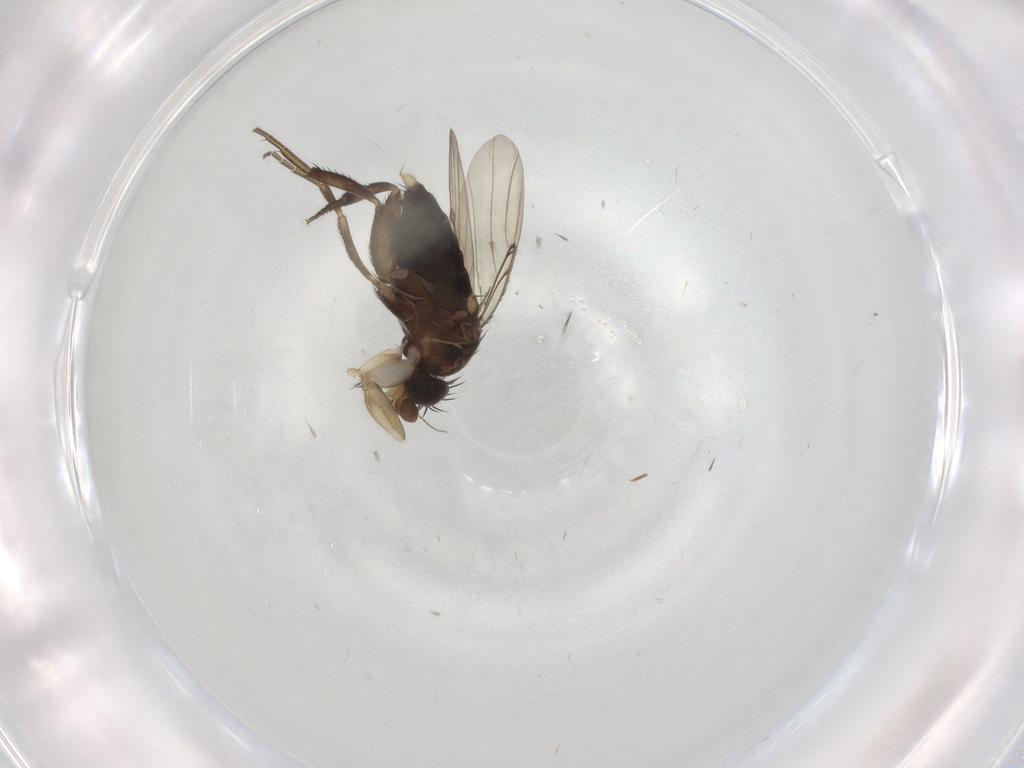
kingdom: Animalia
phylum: Arthropoda
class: Insecta
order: Diptera
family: Phoridae
